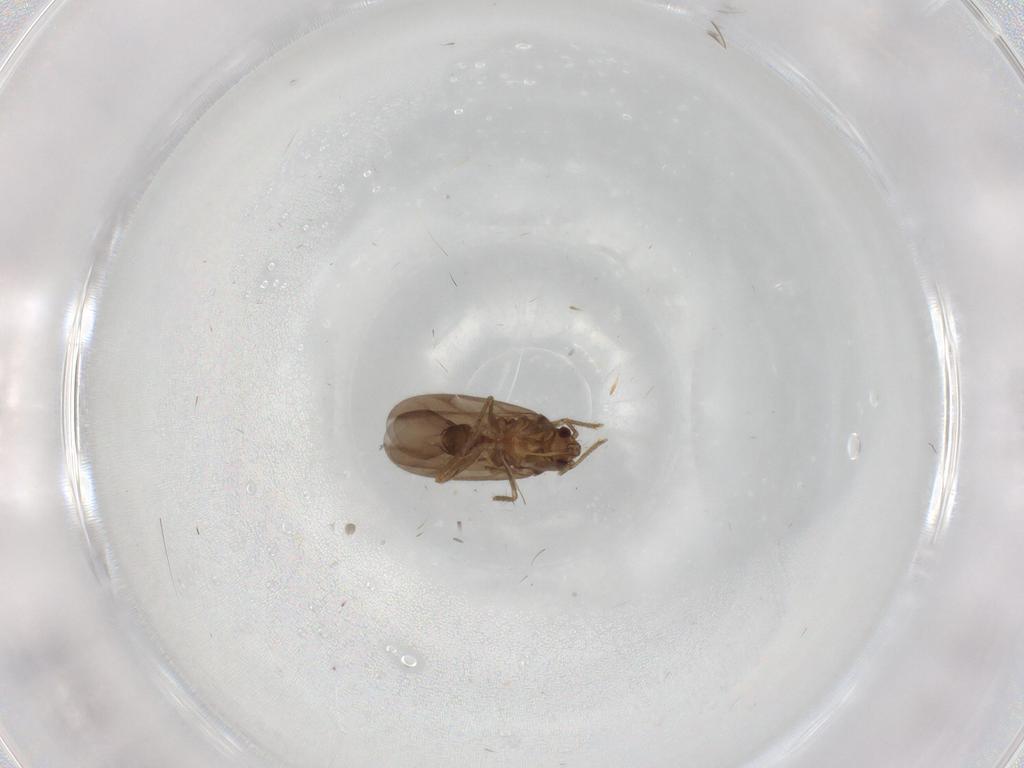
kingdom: Animalia
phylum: Arthropoda
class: Insecta
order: Hemiptera
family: Ceratocombidae
